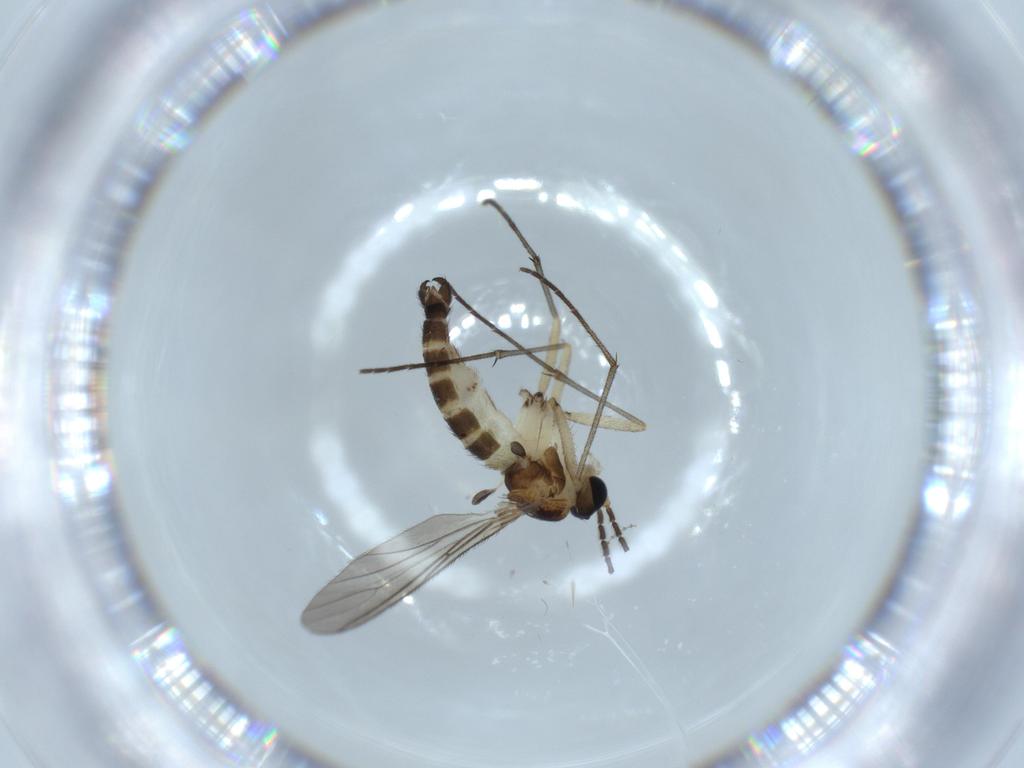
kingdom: Animalia
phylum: Arthropoda
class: Insecta
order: Diptera
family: Sciaridae
